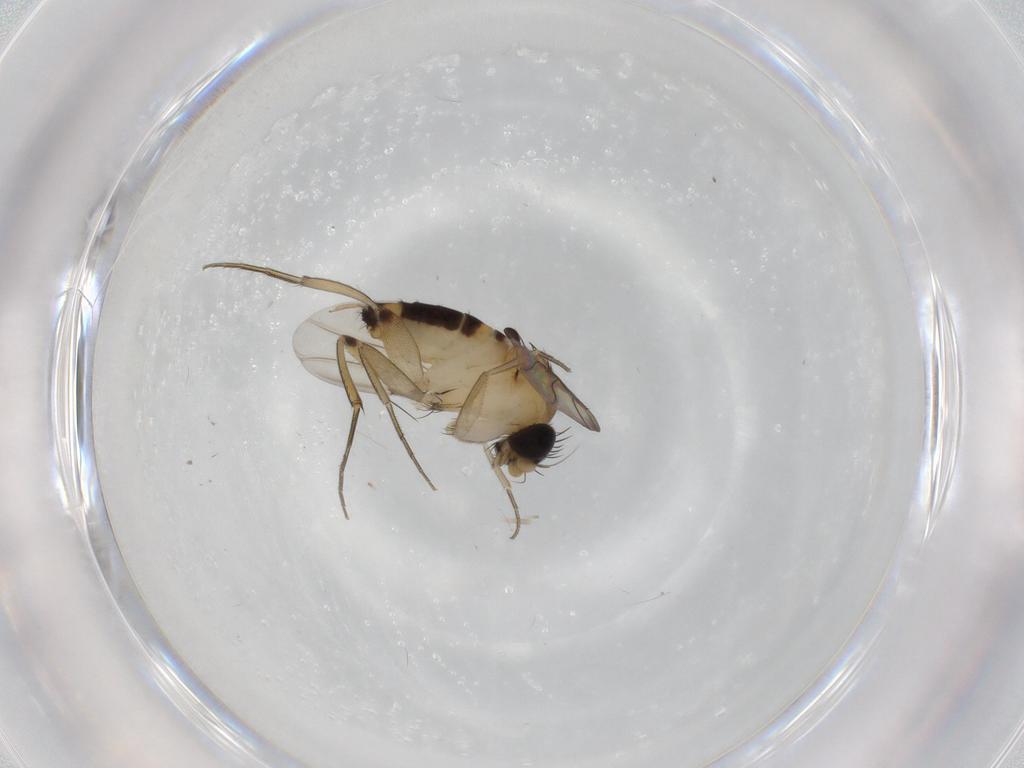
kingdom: Animalia
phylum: Arthropoda
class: Insecta
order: Diptera
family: Phoridae
